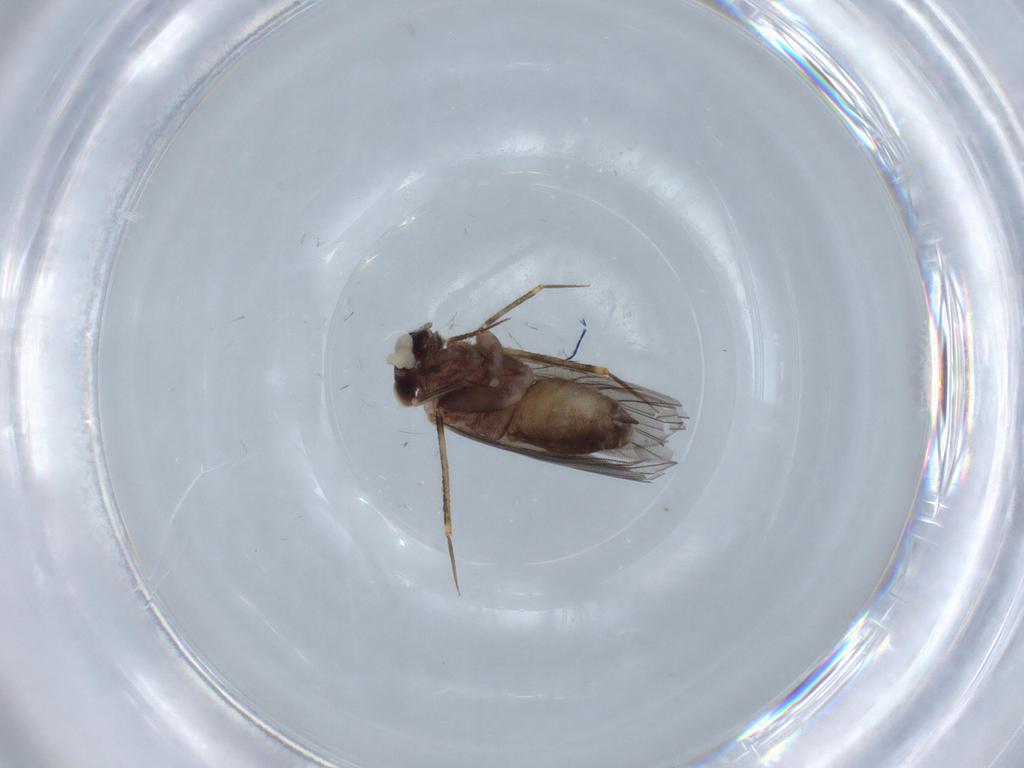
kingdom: Animalia
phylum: Arthropoda
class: Insecta
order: Psocodea
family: Lepidopsocidae
